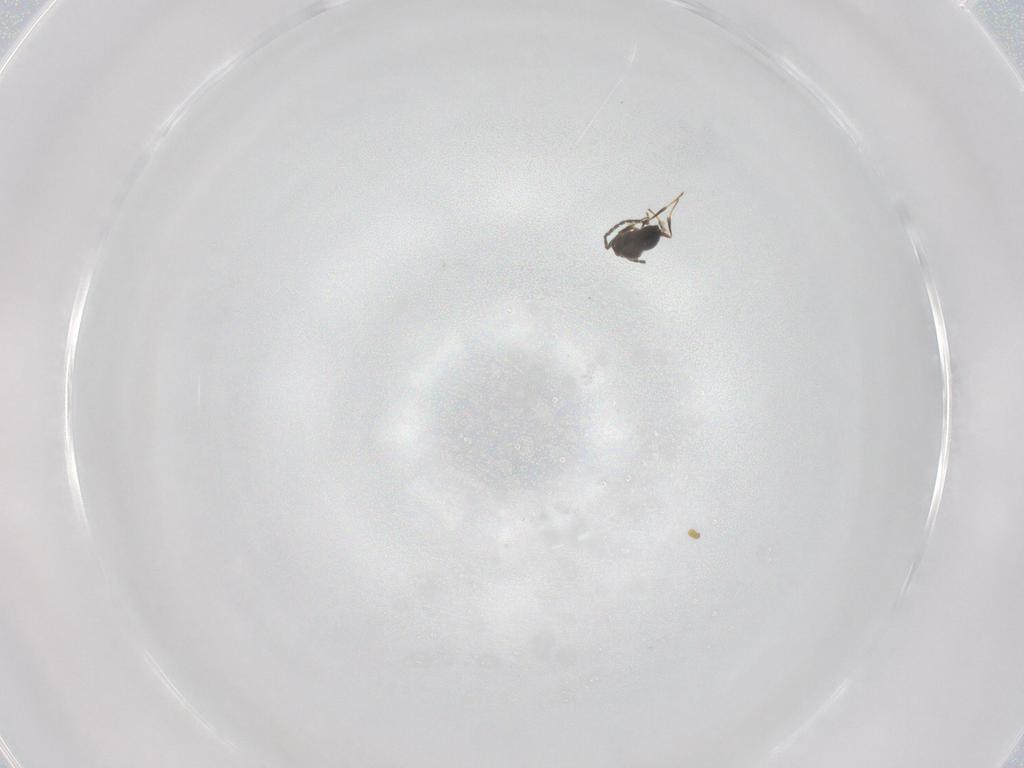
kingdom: Animalia
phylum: Arthropoda
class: Insecta
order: Hymenoptera
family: Scelionidae
